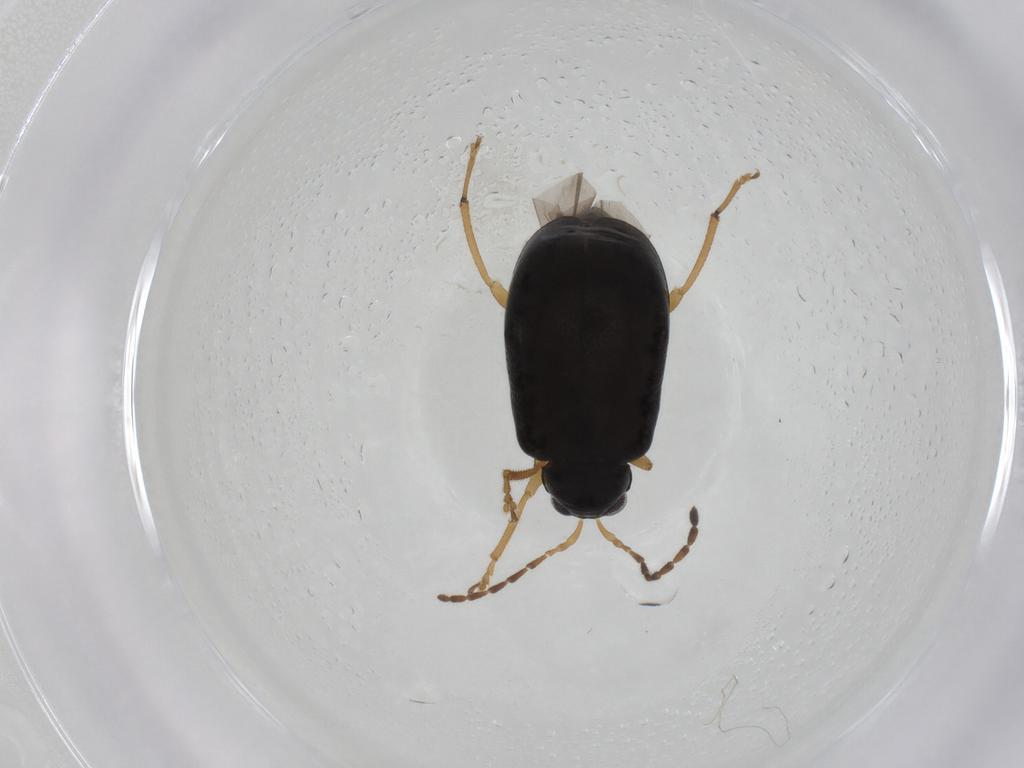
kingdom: Animalia
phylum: Arthropoda
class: Insecta
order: Coleoptera
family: Chrysomelidae
